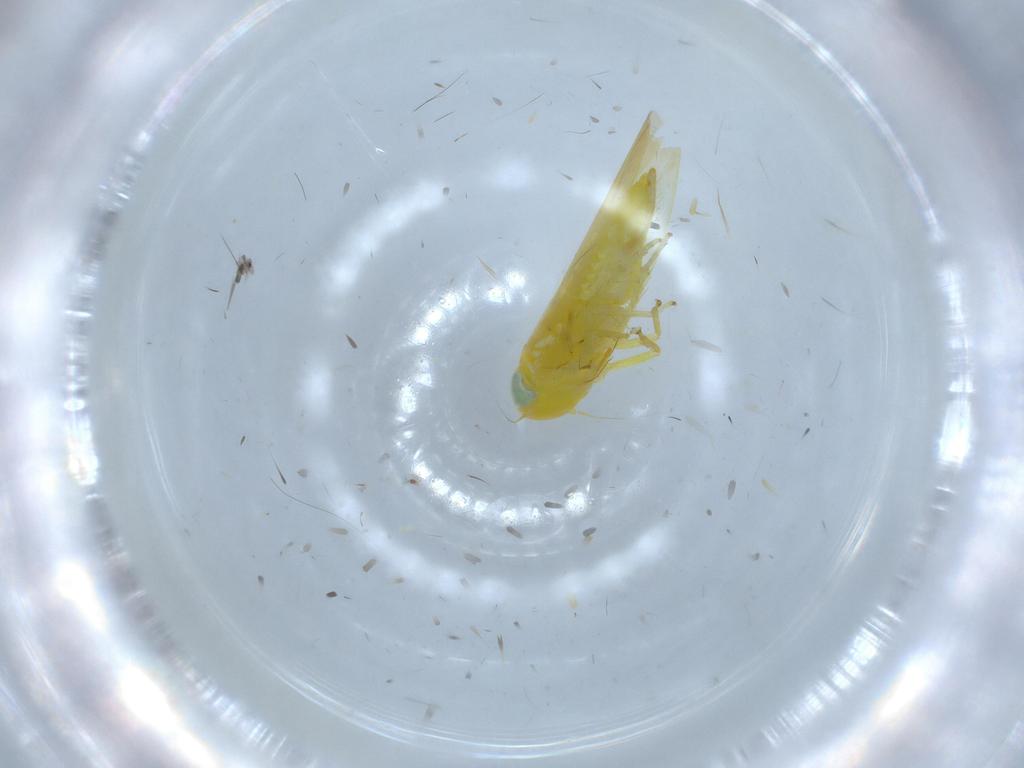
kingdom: Animalia
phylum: Arthropoda
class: Insecta
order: Hemiptera
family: Cicadellidae
